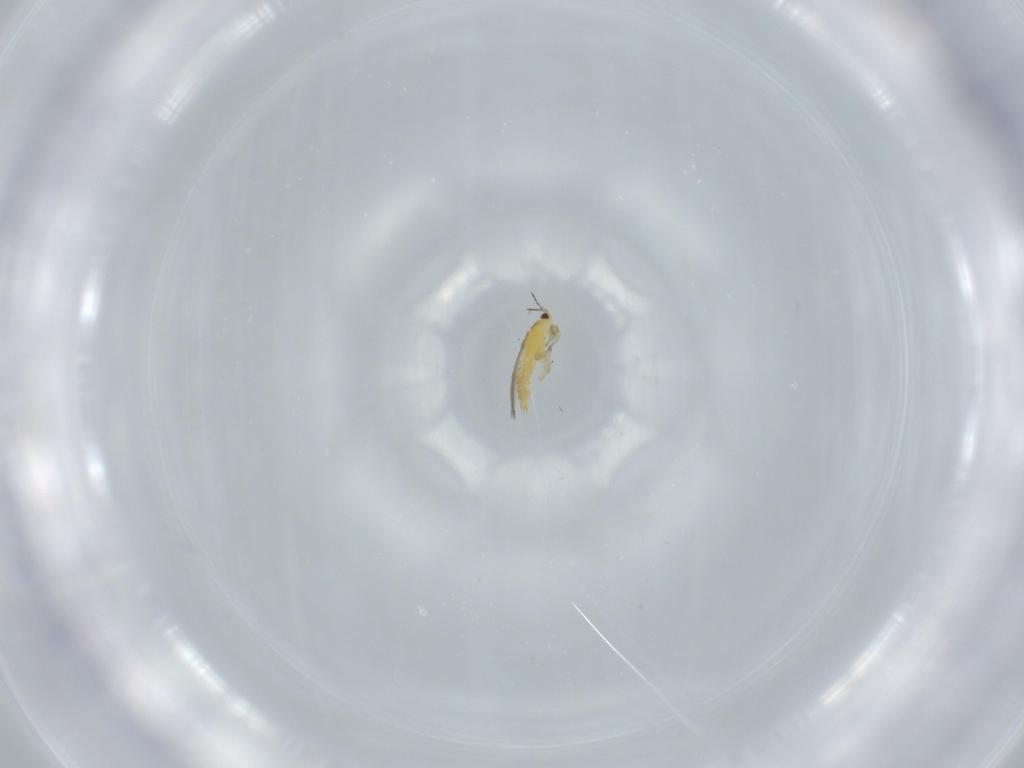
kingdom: Animalia
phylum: Arthropoda
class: Insecta
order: Thysanoptera
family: Thripidae
